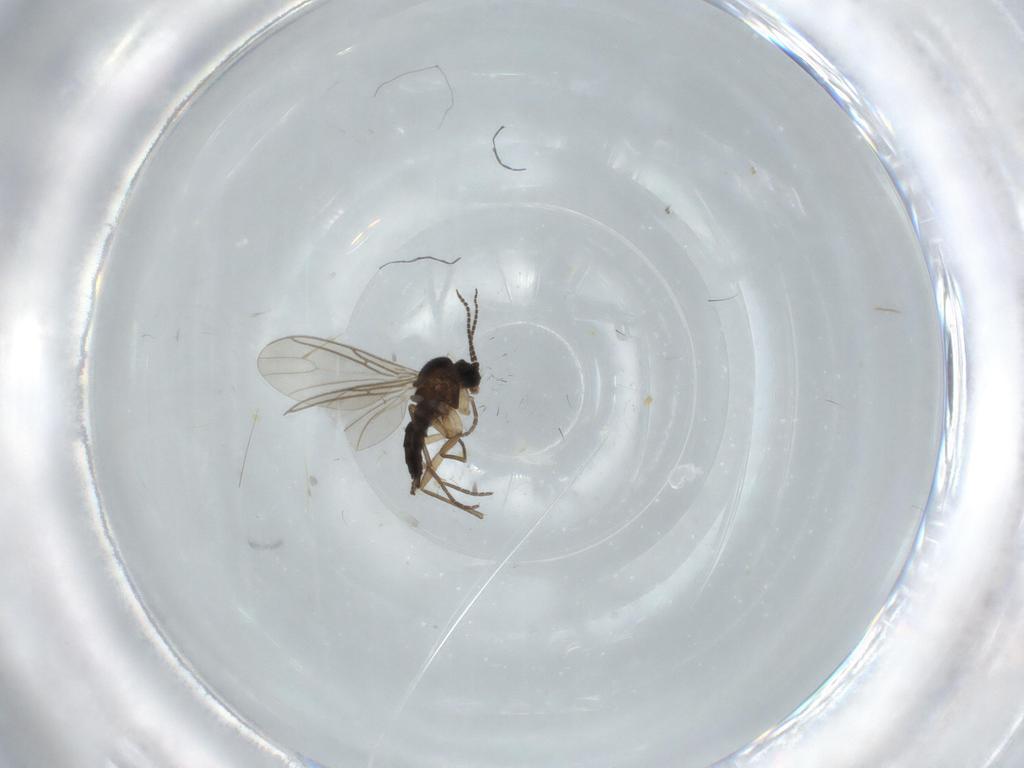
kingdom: Animalia
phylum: Arthropoda
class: Insecta
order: Diptera
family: Sciaridae
